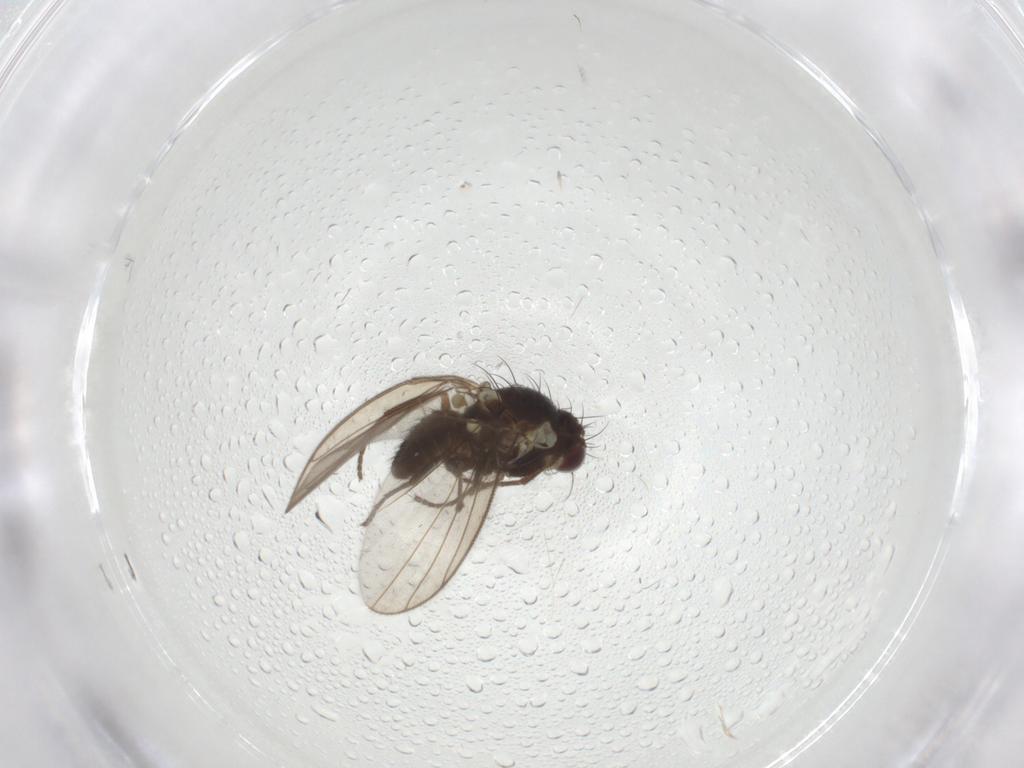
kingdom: Animalia
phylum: Arthropoda
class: Insecta
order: Diptera
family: Agromyzidae
